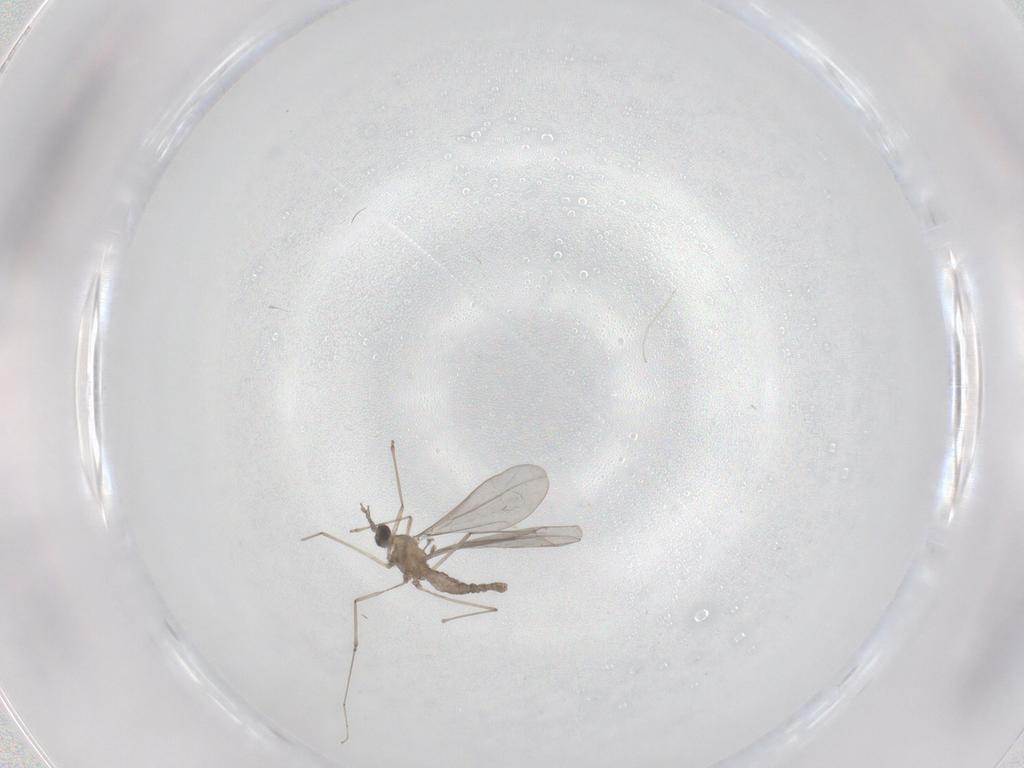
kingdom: Animalia
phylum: Arthropoda
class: Insecta
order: Diptera
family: Cecidomyiidae
